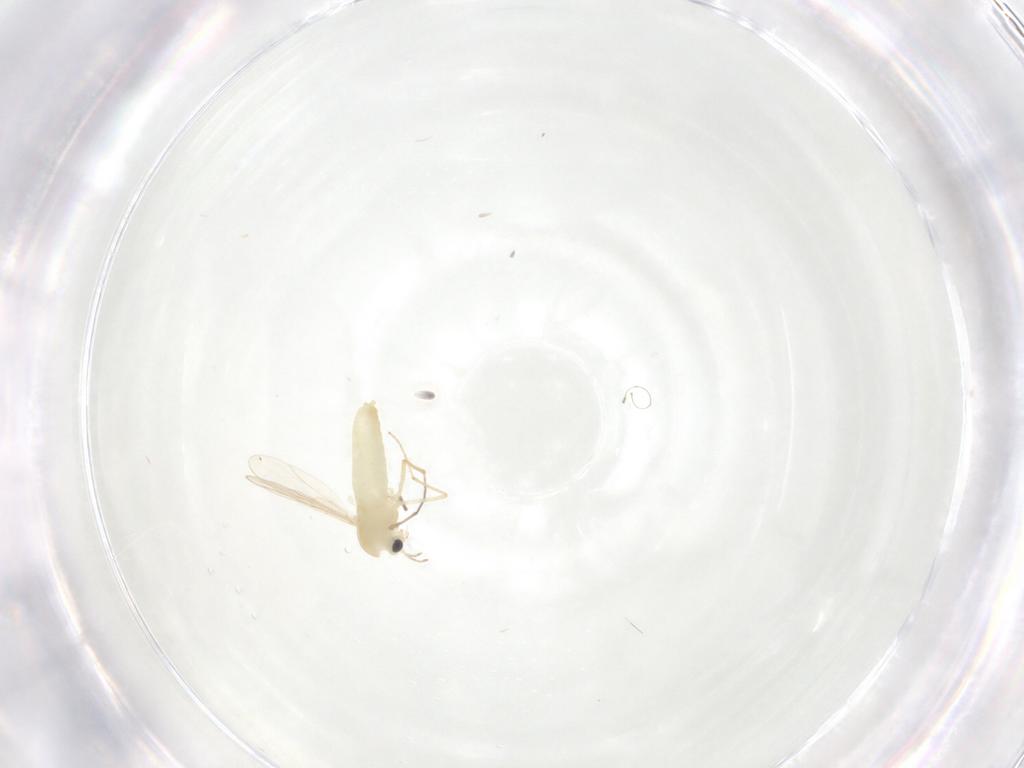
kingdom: Animalia
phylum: Arthropoda
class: Insecta
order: Diptera
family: Chironomidae
